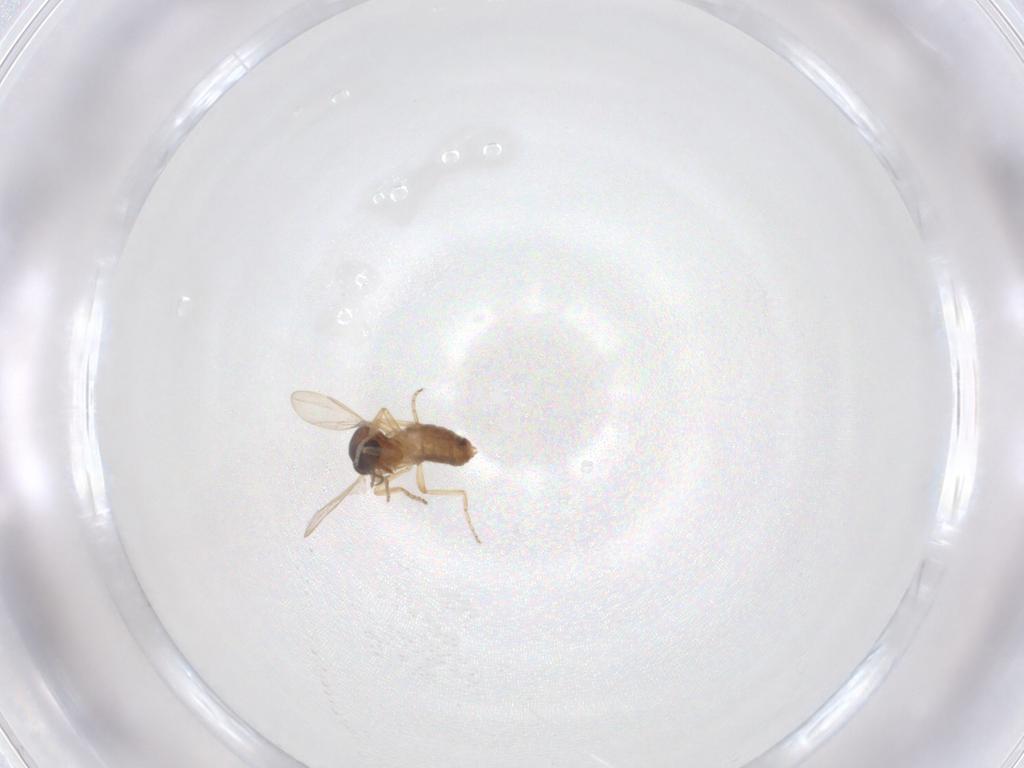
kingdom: Animalia
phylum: Arthropoda
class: Insecta
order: Diptera
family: Ceratopogonidae
